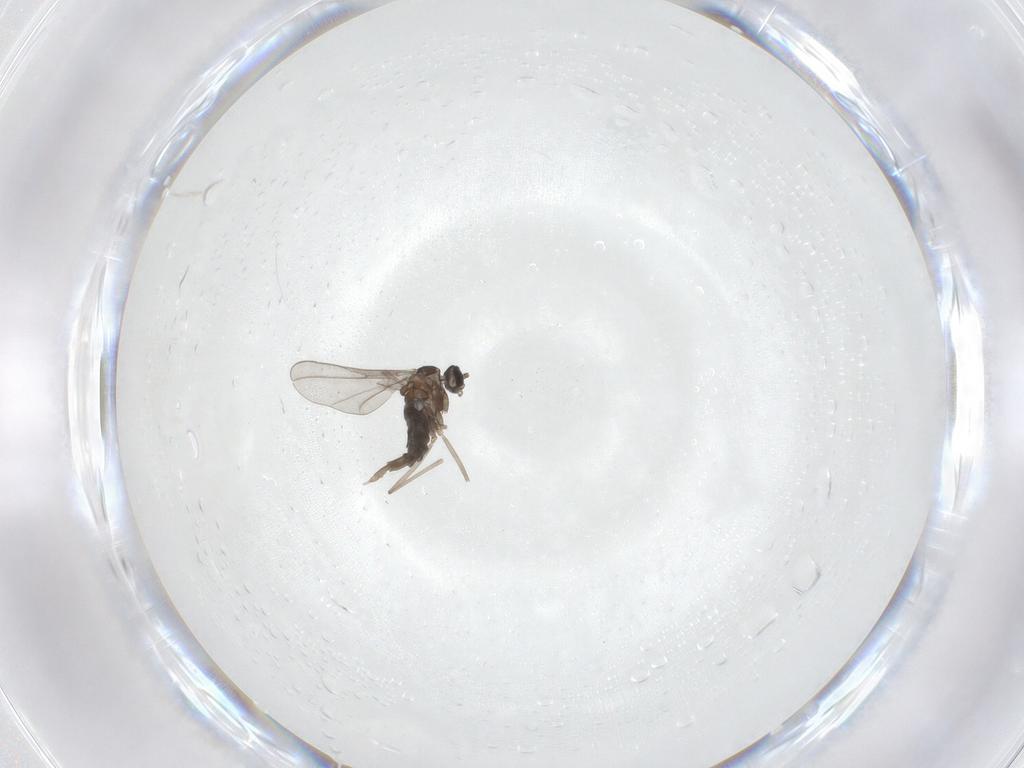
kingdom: Animalia
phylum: Arthropoda
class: Insecta
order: Diptera
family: Cecidomyiidae
